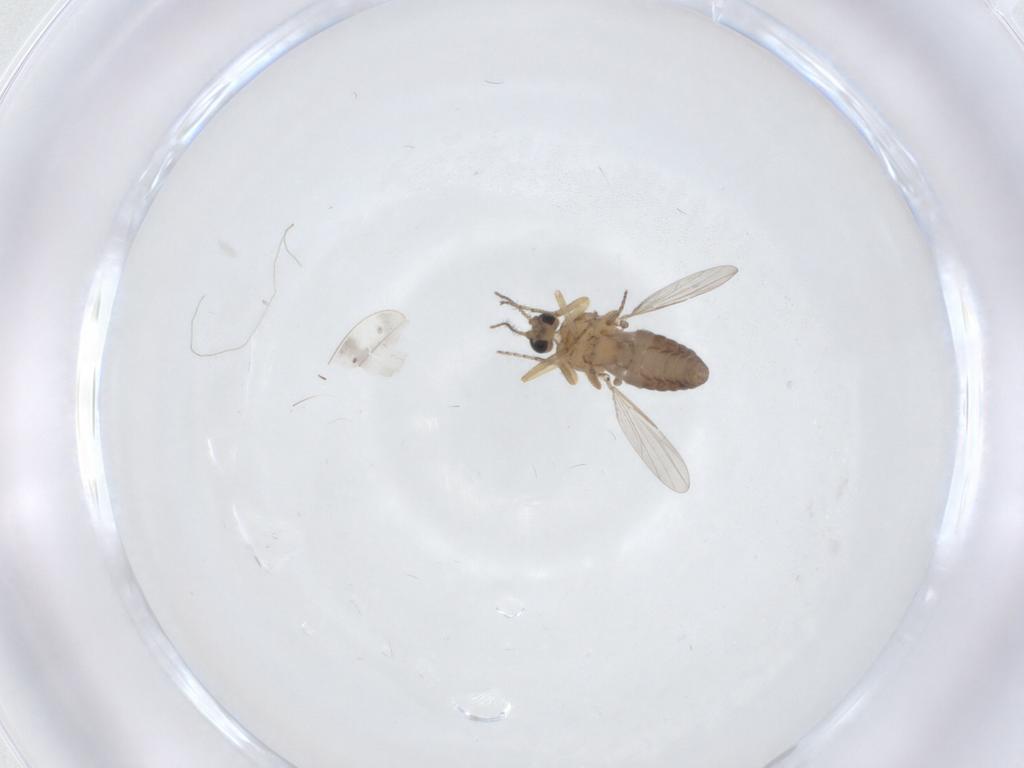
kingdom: Animalia
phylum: Arthropoda
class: Insecta
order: Diptera
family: Ceratopogonidae
